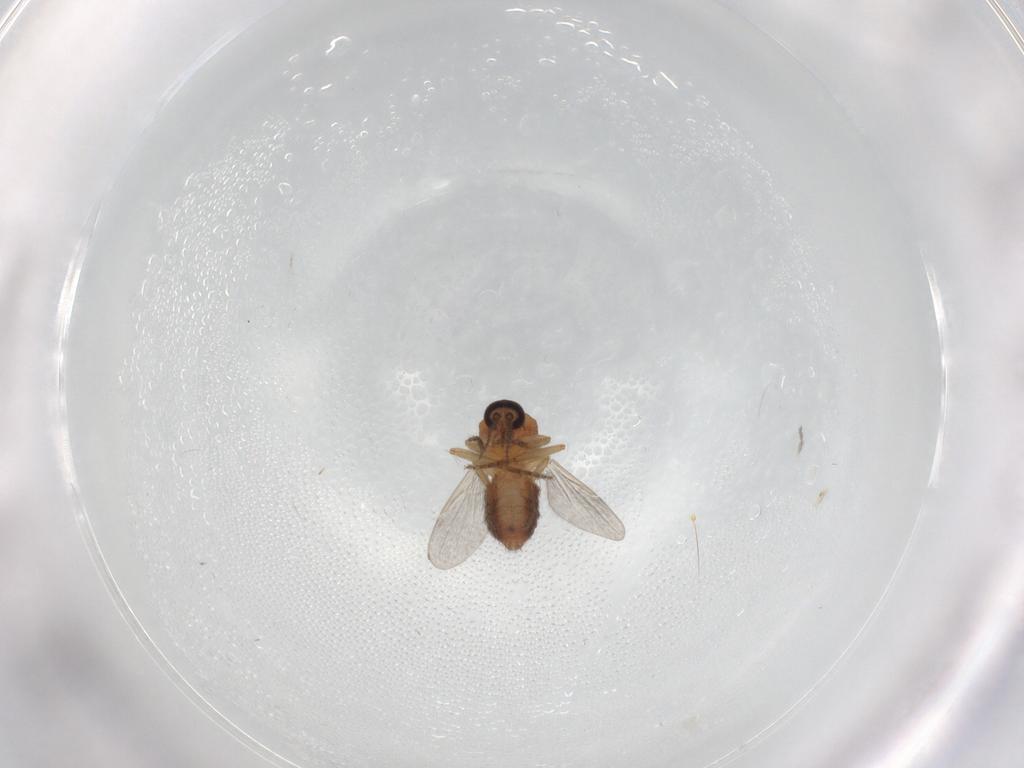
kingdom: Animalia
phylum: Arthropoda
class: Insecta
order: Diptera
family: Ceratopogonidae
